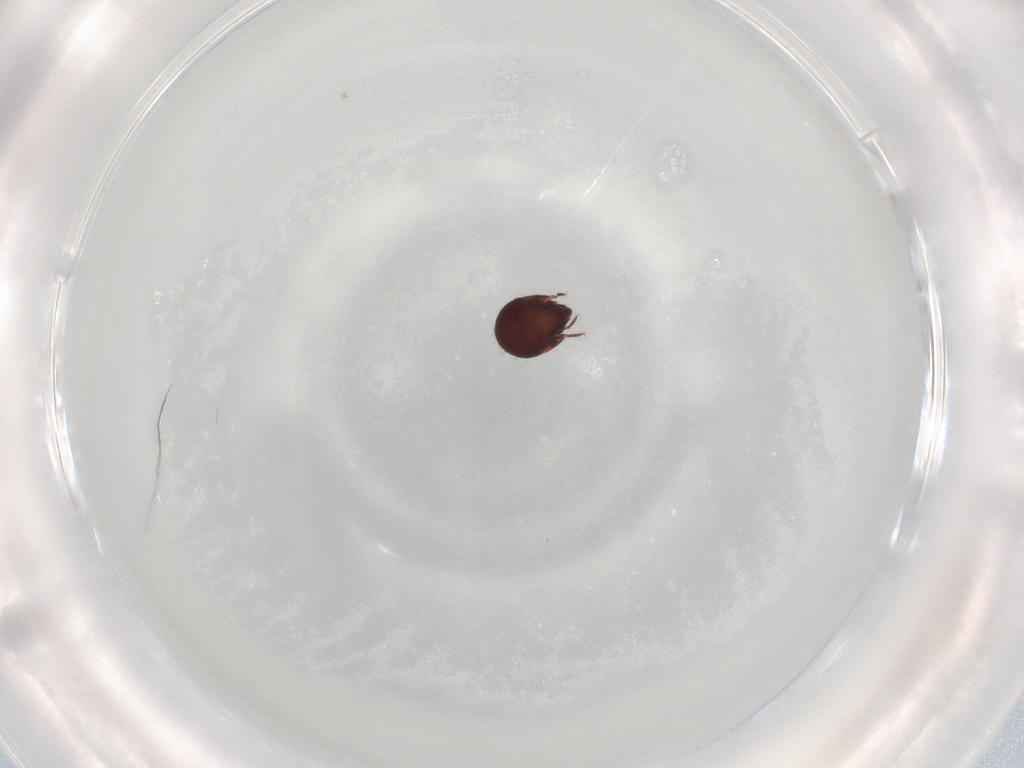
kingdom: Animalia
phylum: Arthropoda
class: Arachnida
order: Sarcoptiformes
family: Humerobatidae
